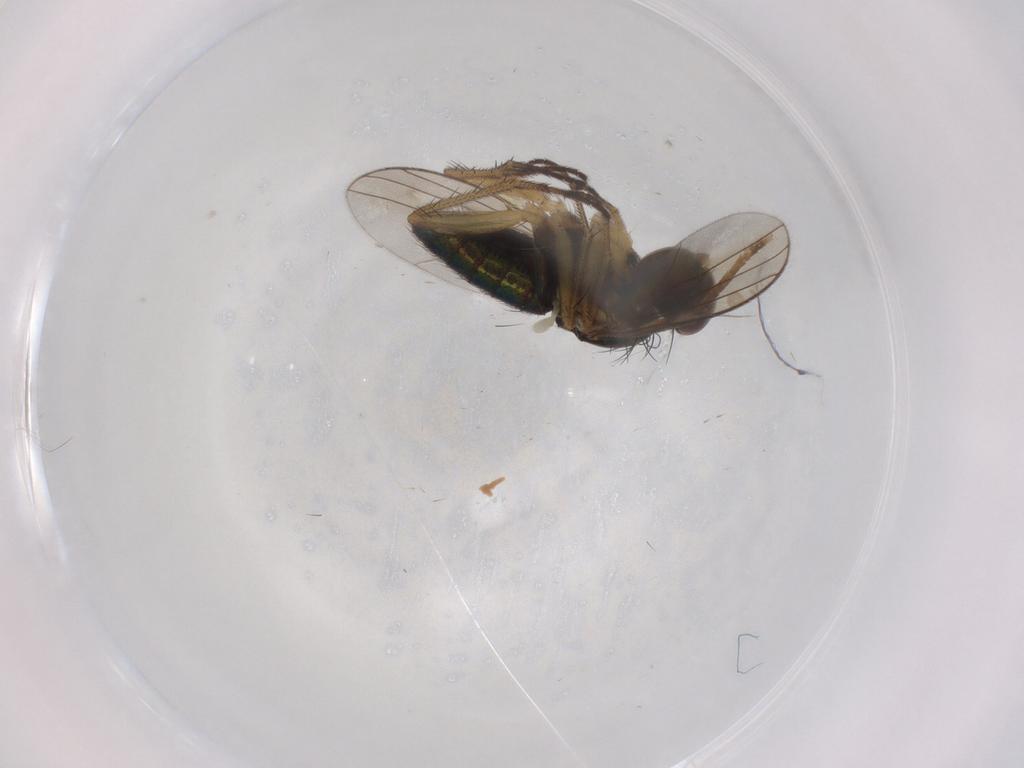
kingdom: Animalia
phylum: Arthropoda
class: Insecta
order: Diptera
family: Dolichopodidae
